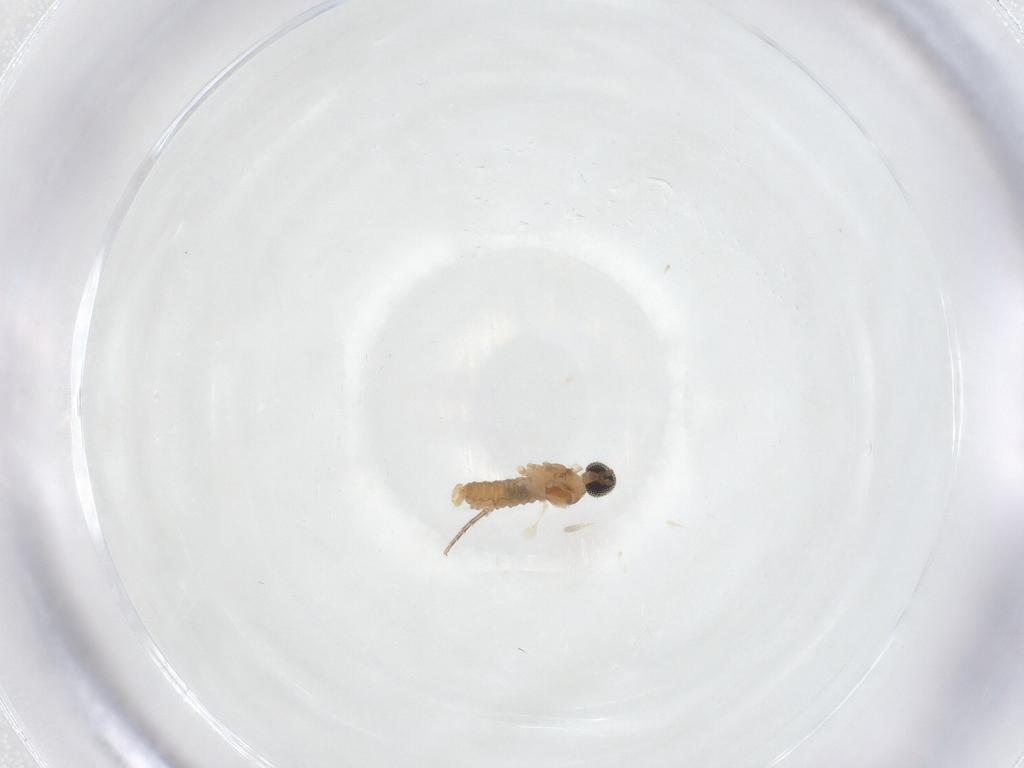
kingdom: Animalia
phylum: Arthropoda
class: Insecta
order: Diptera
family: Cecidomyiidae
